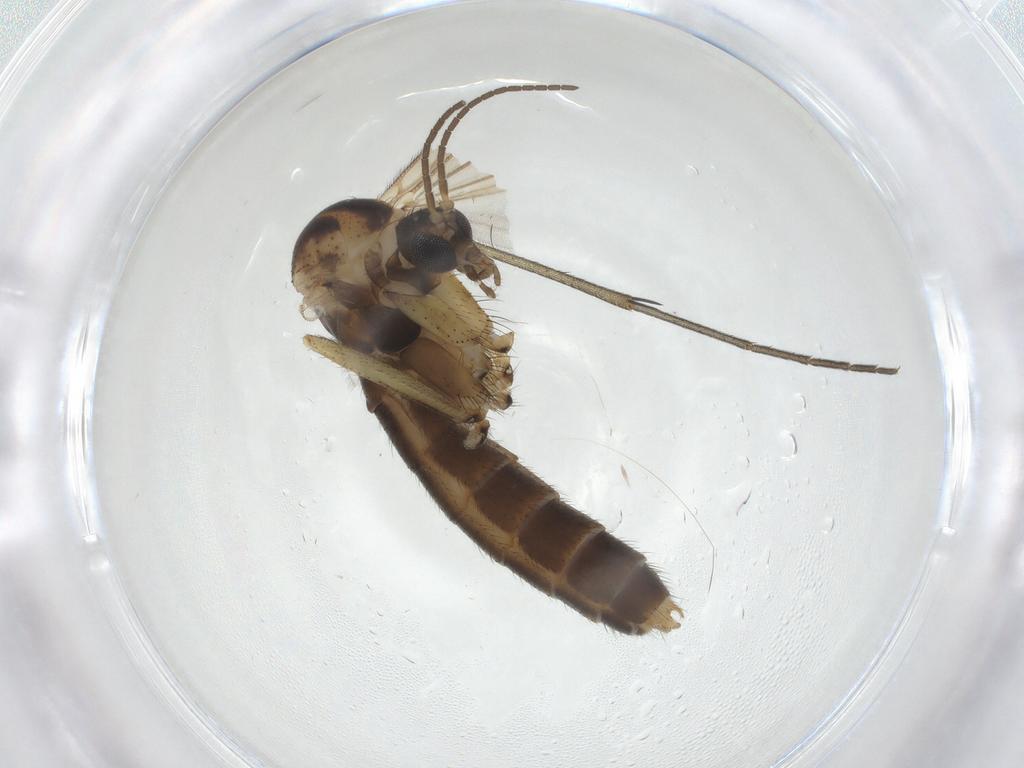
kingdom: Animalia
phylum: Arthropoda
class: Insecta
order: Diptera
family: Mycetophilidae
